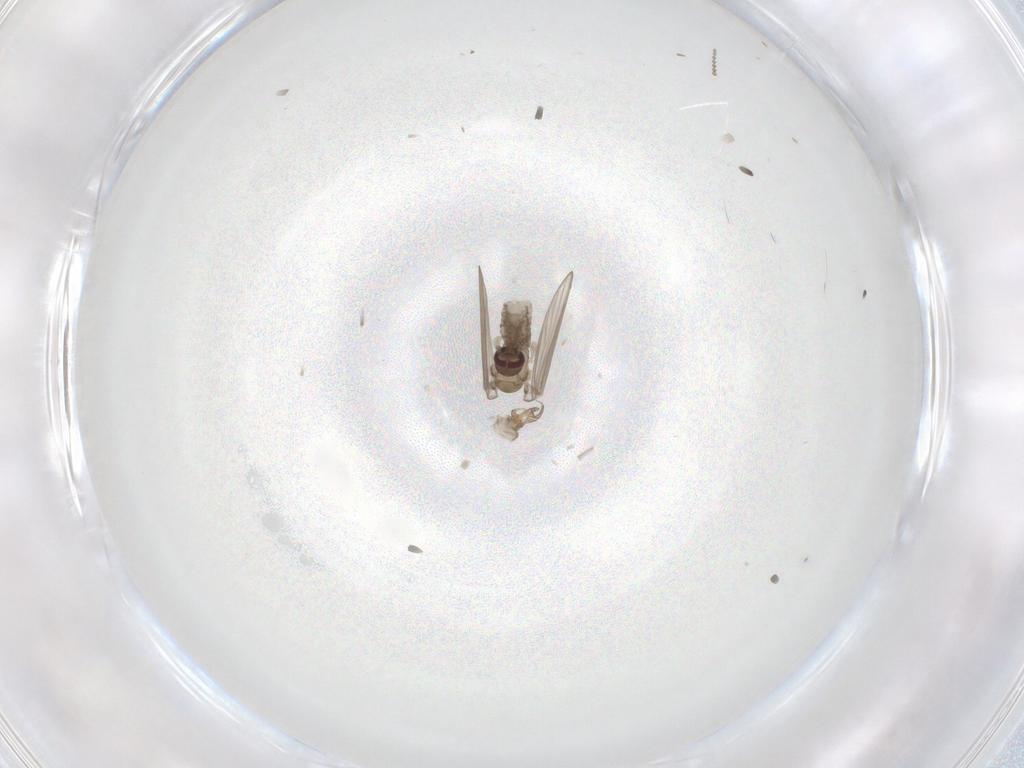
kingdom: Animalia
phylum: Arthropoda
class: Insecta
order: Diptera
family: Psychodidae
